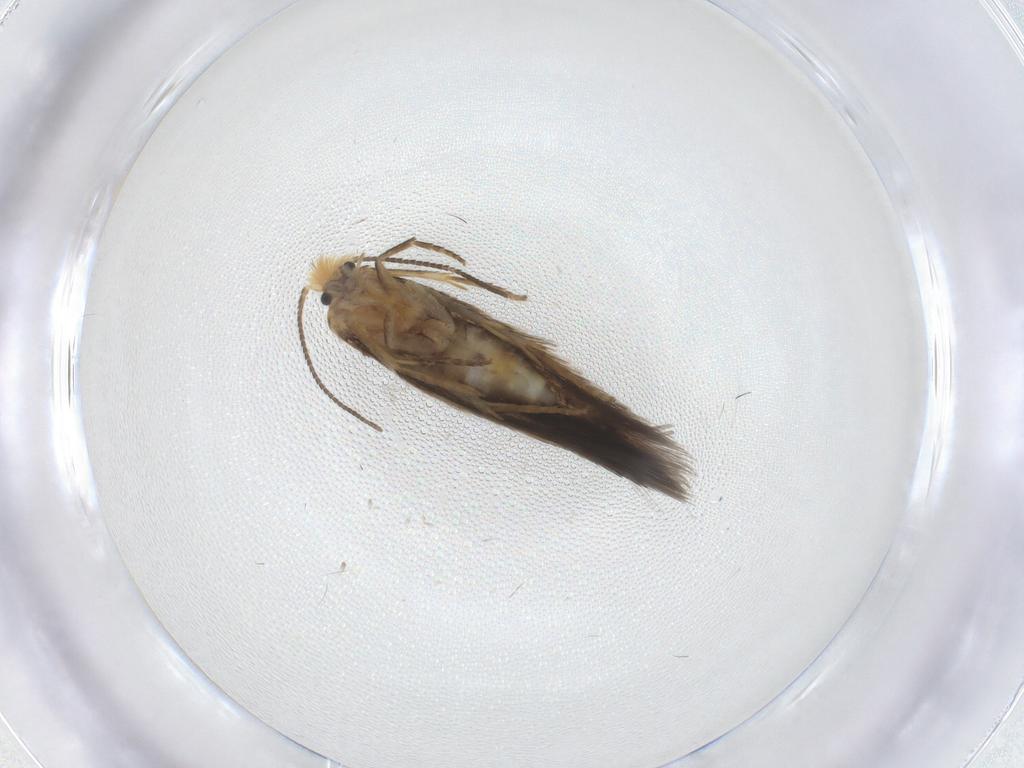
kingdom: Animalia
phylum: Arthropoda
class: Insecta
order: Lepidoptera
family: Nepticulidae
